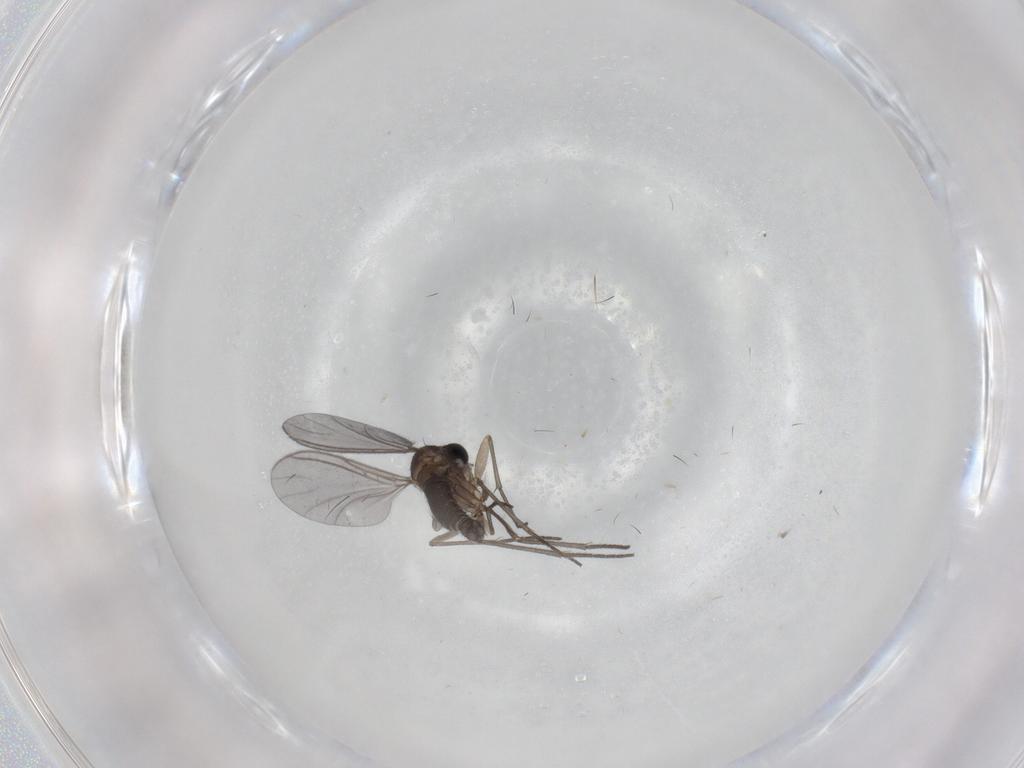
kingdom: Animalia
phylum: Arthropoda
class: Insecta
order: Diptera
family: Sciaridae
